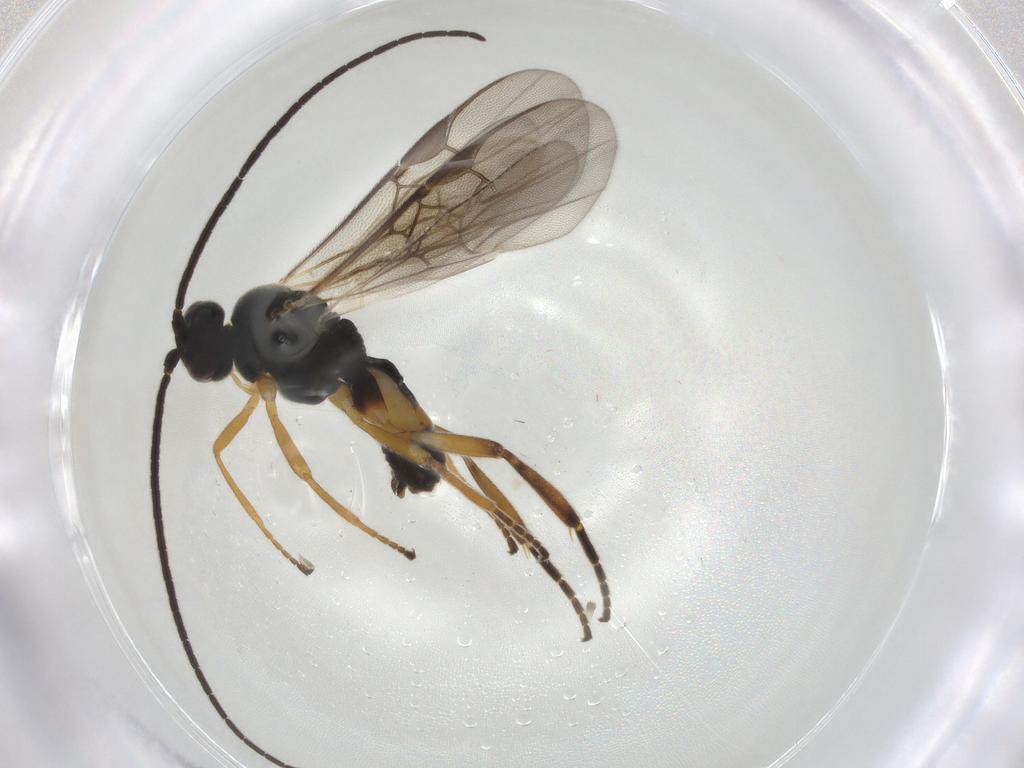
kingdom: Animalia
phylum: Arthropoda
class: Insecta
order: Hymenoptera
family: Braconidae
